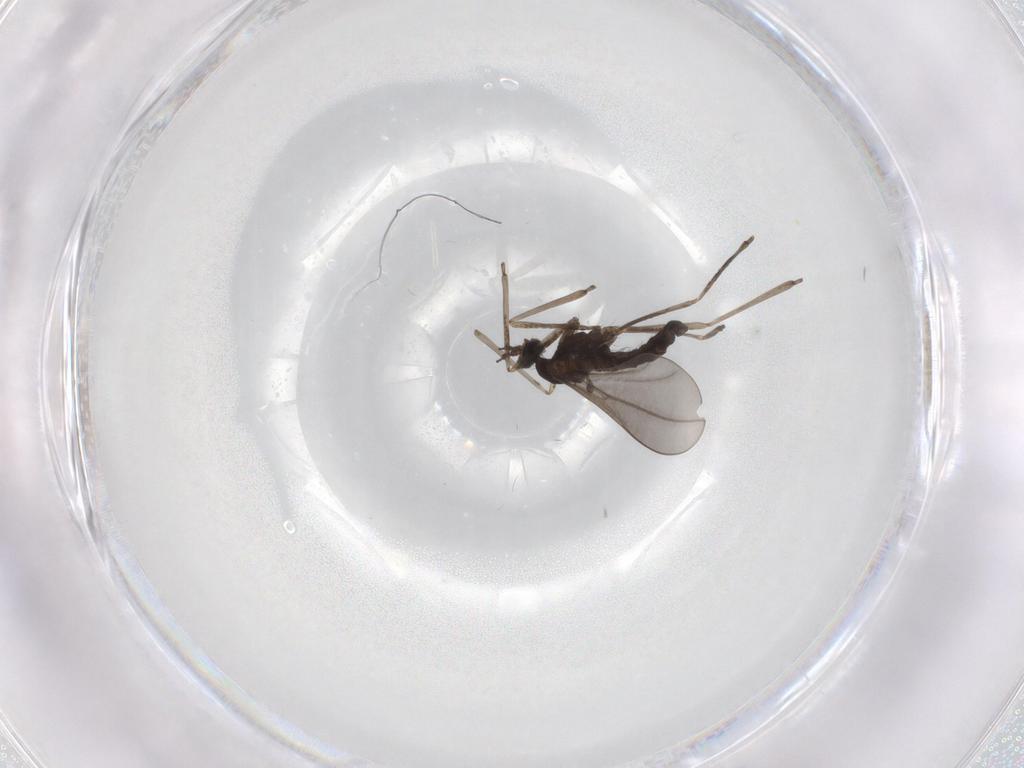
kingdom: Animalia
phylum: Arthropoda
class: Insecta
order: Diptera
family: Cecidomyiidae
